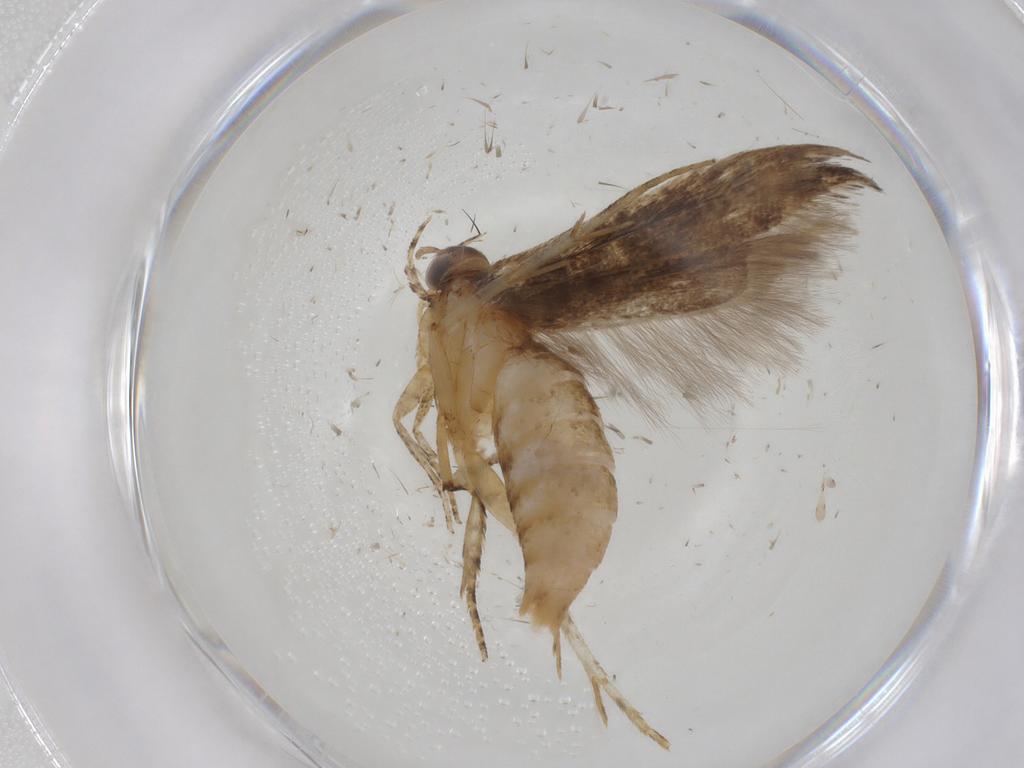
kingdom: Animalia
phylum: Arthropoda
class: Insecta
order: Lepidoptera
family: Gelechiidae
